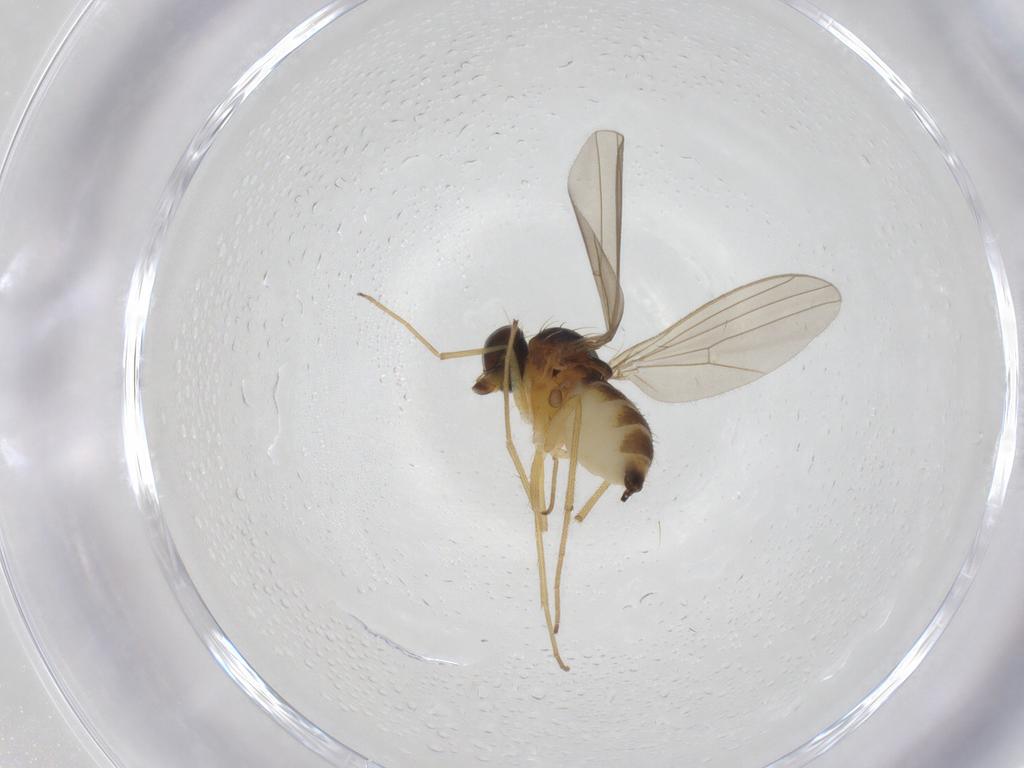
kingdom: Animalia
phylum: Arthropoda
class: Insecta
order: Diptera
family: Dolichopodidae
